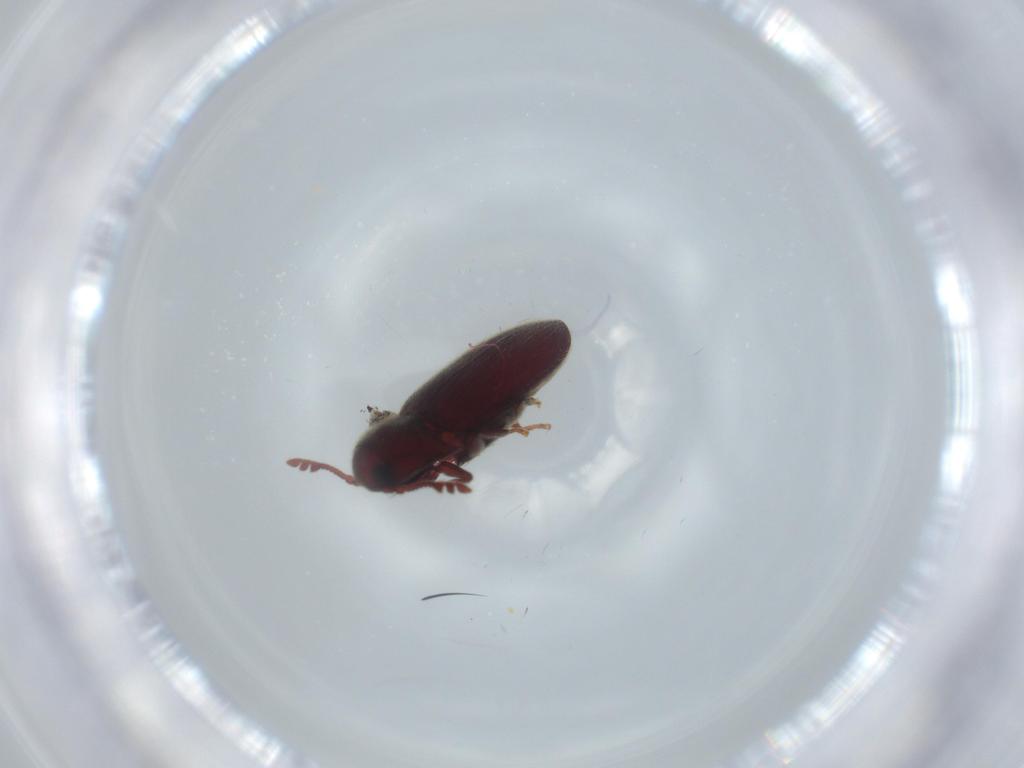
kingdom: Animalia
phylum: Arthropoda
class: Insecta
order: Coleoptera
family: Throscidae
